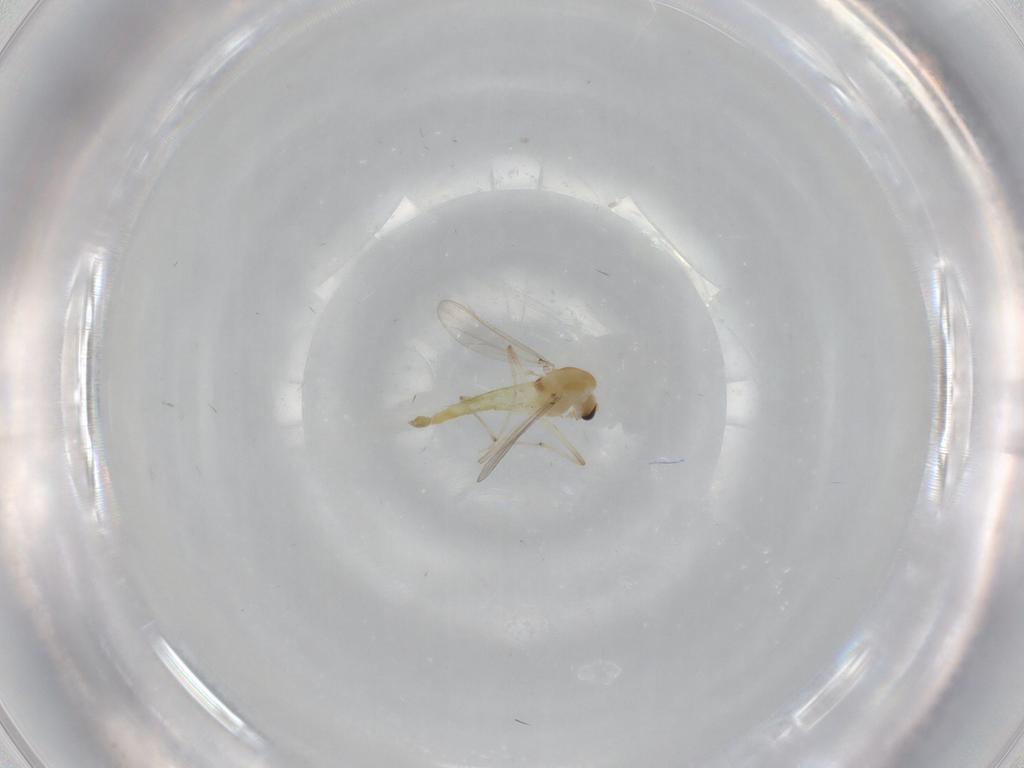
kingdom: Animalia
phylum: Arthropoda
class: Insecta
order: Diptera
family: Chironomidae
